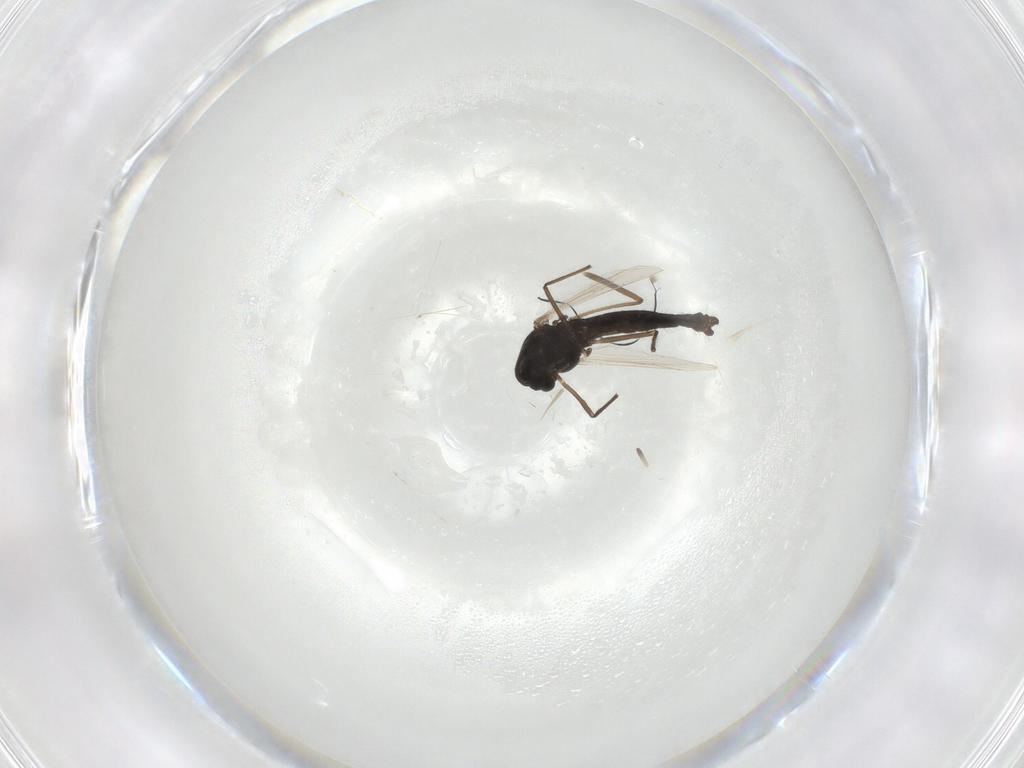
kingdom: Animalia
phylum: Arthropoda
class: Insecta
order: Diptera
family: Chironomidae
